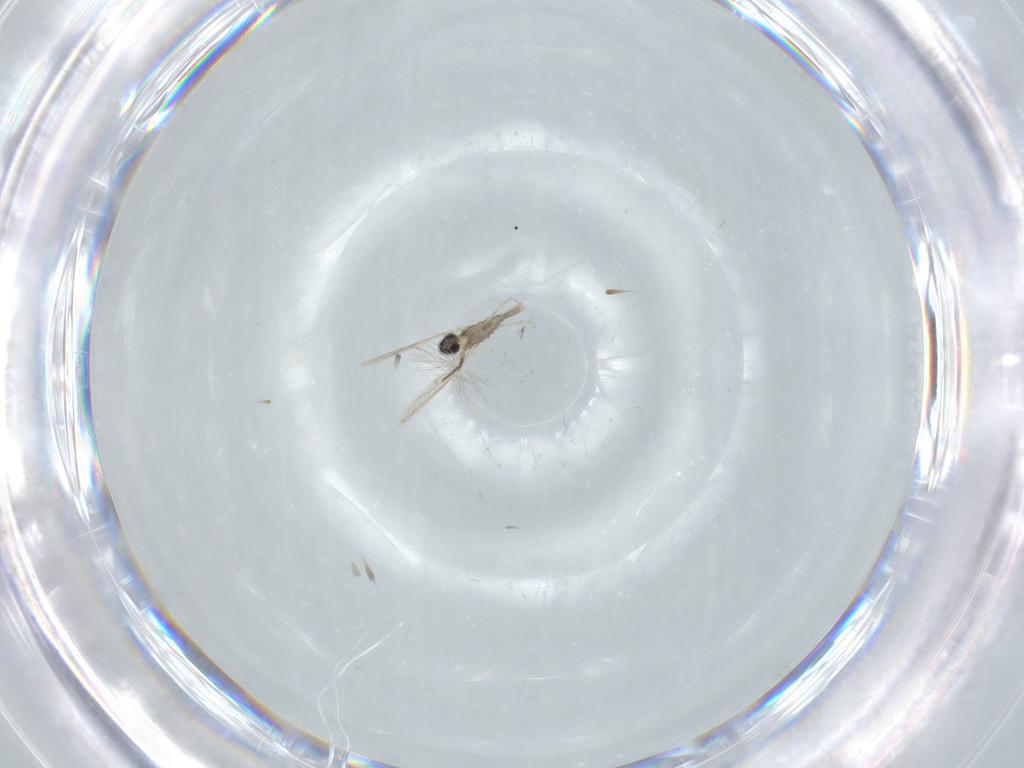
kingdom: Animalia
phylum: Arthropoda
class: Insecta
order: Diptera
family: Cecidomyiidae
